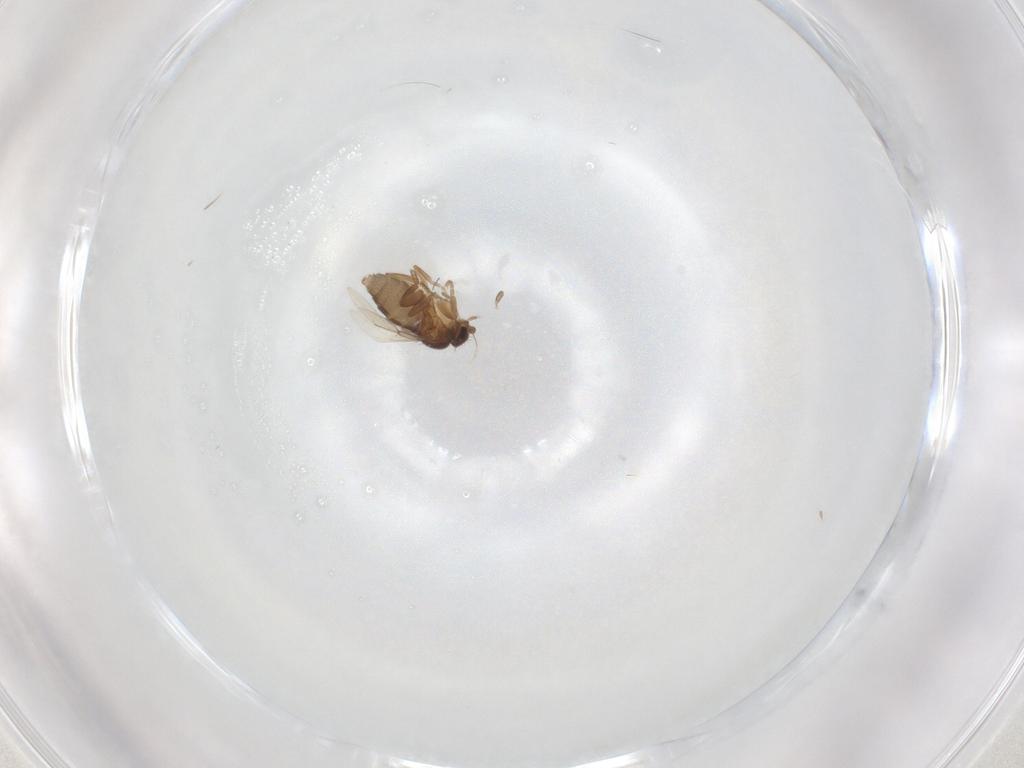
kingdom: Animalia
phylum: Arthropoda
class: Insecta
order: Diptera
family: Phoridae
